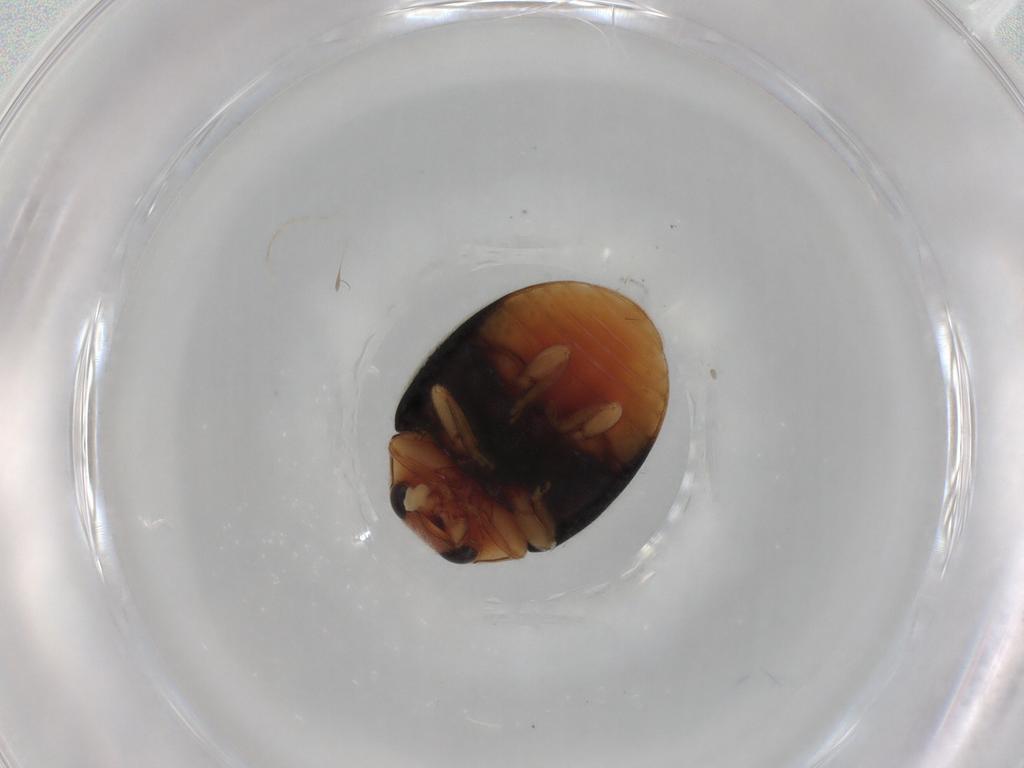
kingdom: Animalia
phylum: Arthropoda
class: Insecta
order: Coleoptera
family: Coccinellidae
